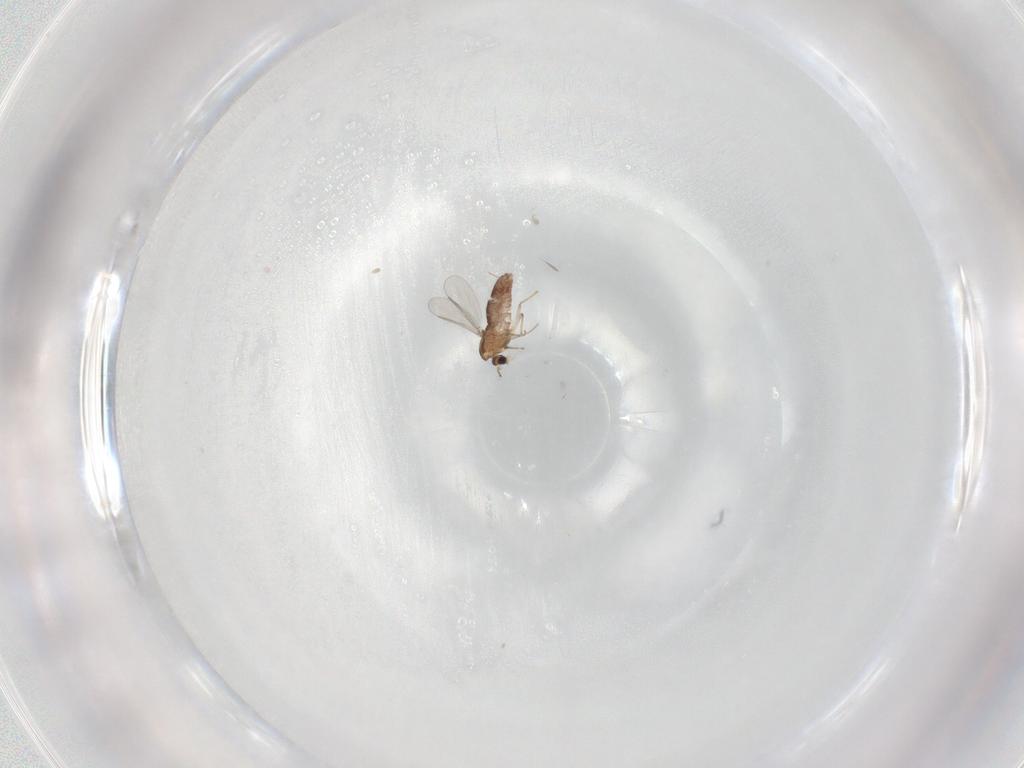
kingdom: Animalia
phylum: Arthropoda
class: Insecta
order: Diptera
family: Chironomidae
